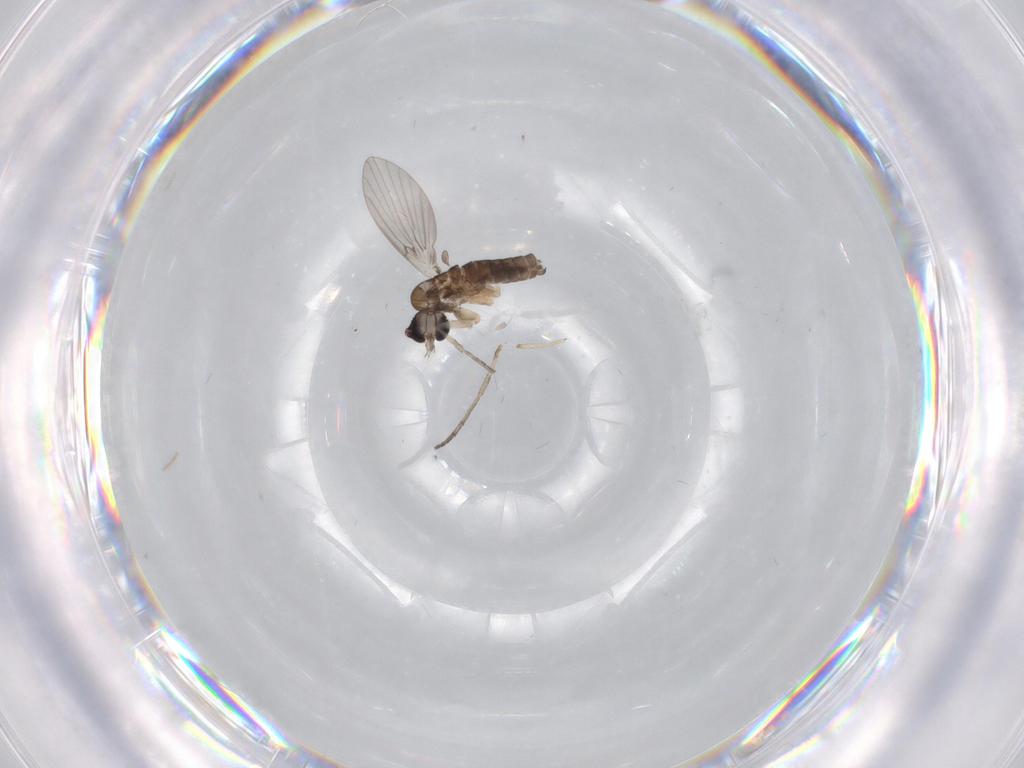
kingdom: Animalia
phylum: Arthropoda
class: Insecta
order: Diptera
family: Psychodidae
